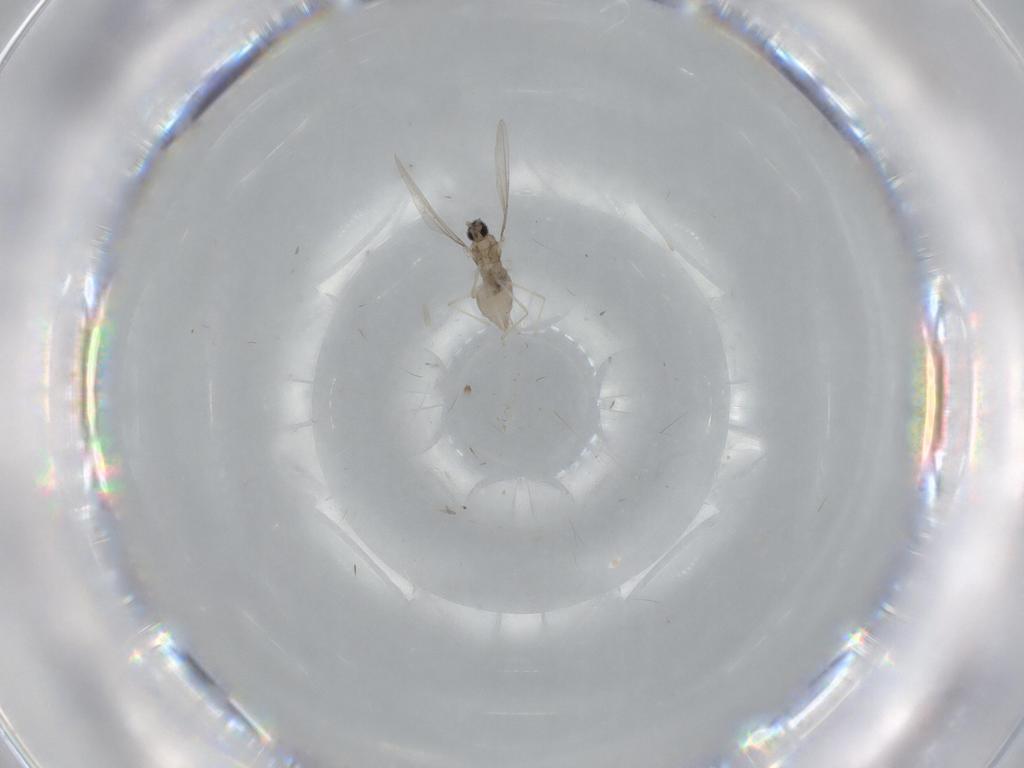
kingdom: Animalia
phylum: Arthropoda
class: Insecta
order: Diptera
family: Cecidomyiidae
